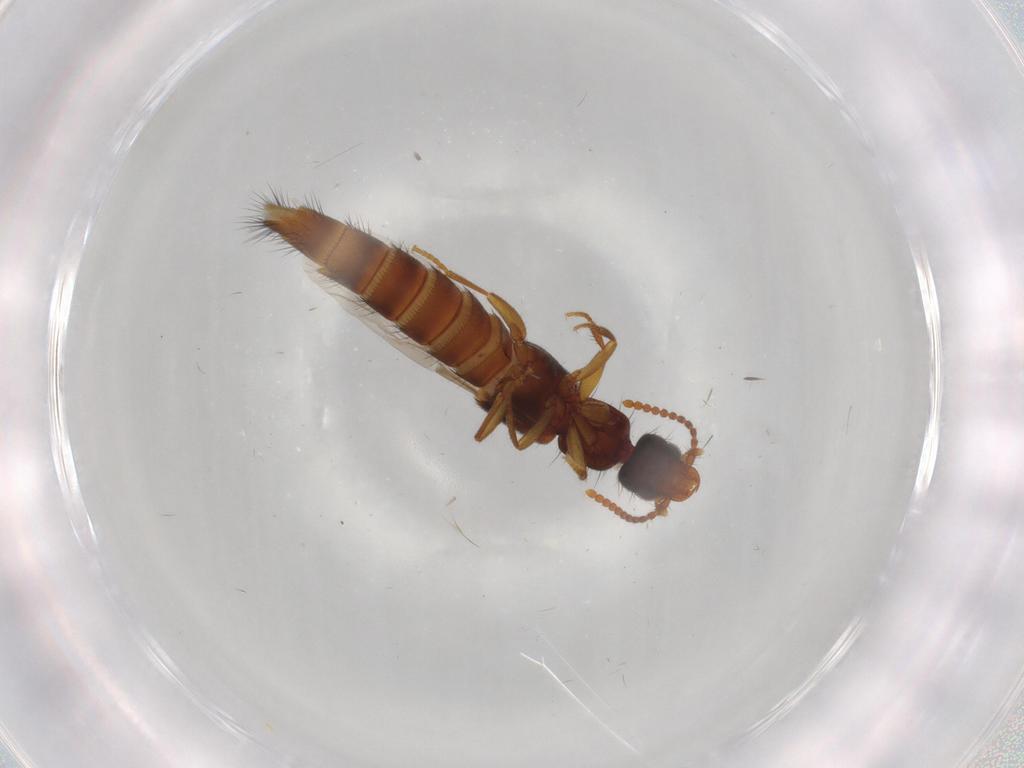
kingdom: Animalia
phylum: Arthropoda
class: Insecta
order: Coleoptera
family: Staphylinidae
